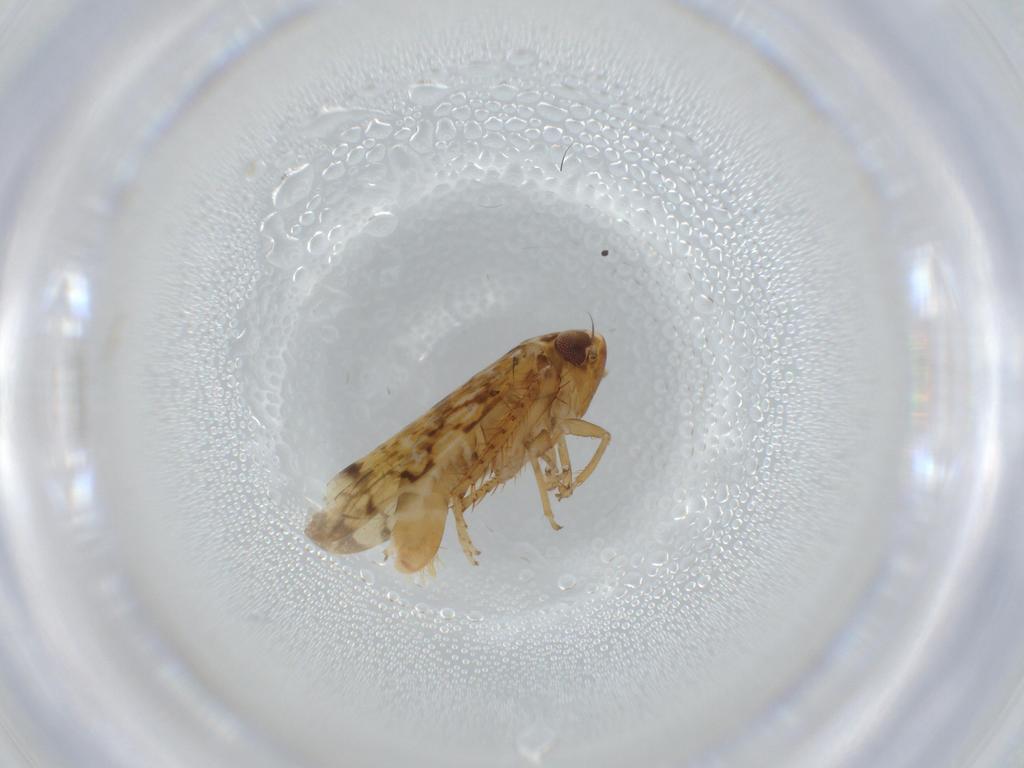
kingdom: Animalia
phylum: Arthropoda
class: Insecta
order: Hemiptera
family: Cicadellidae
